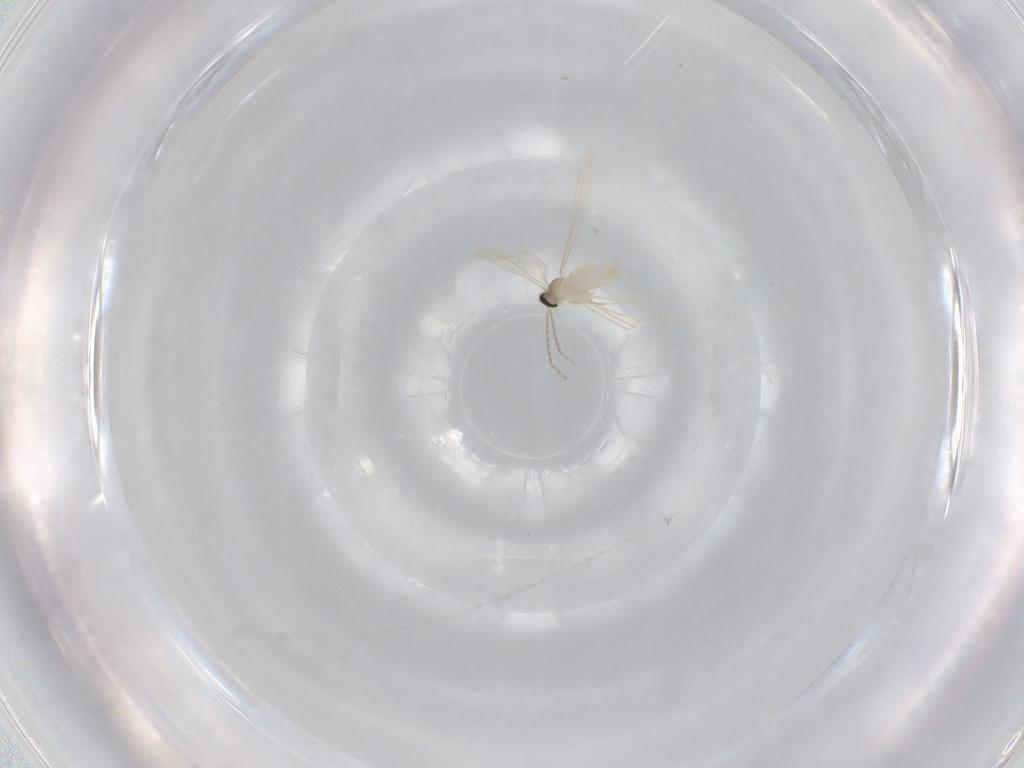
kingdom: Animalia
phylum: Arthropoda
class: Insecta
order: Diptera
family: Cecidomyiidae
